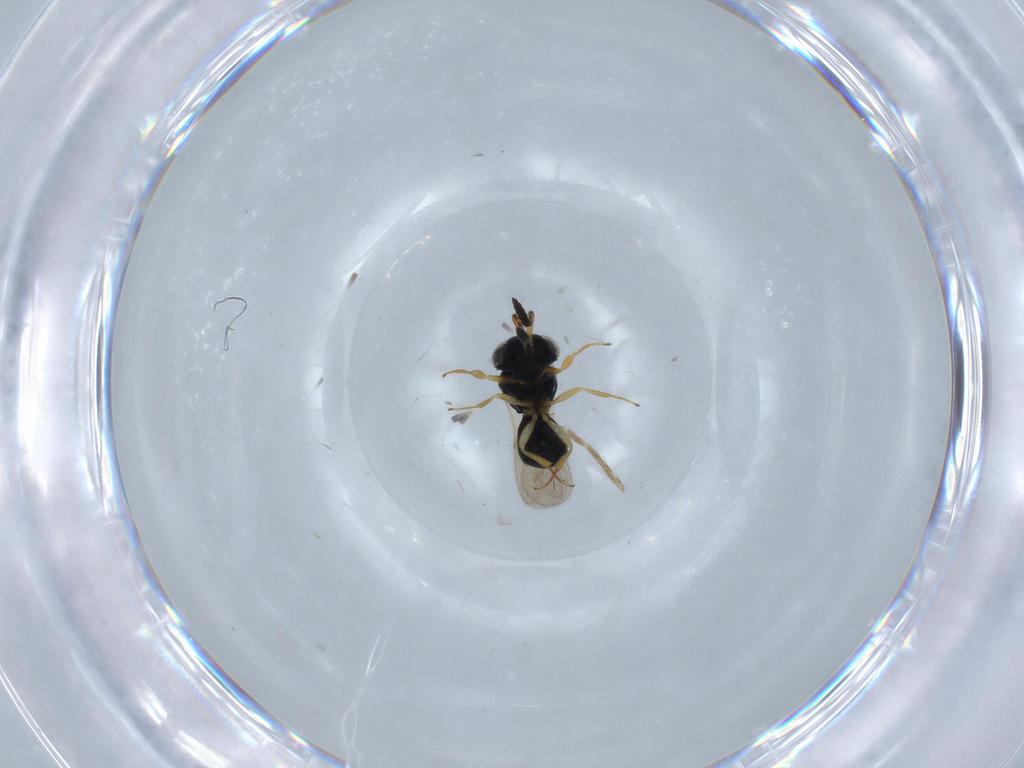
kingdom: Animalia
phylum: Arthropoda
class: Insecta
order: Hymenoptera
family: Scelionidae
